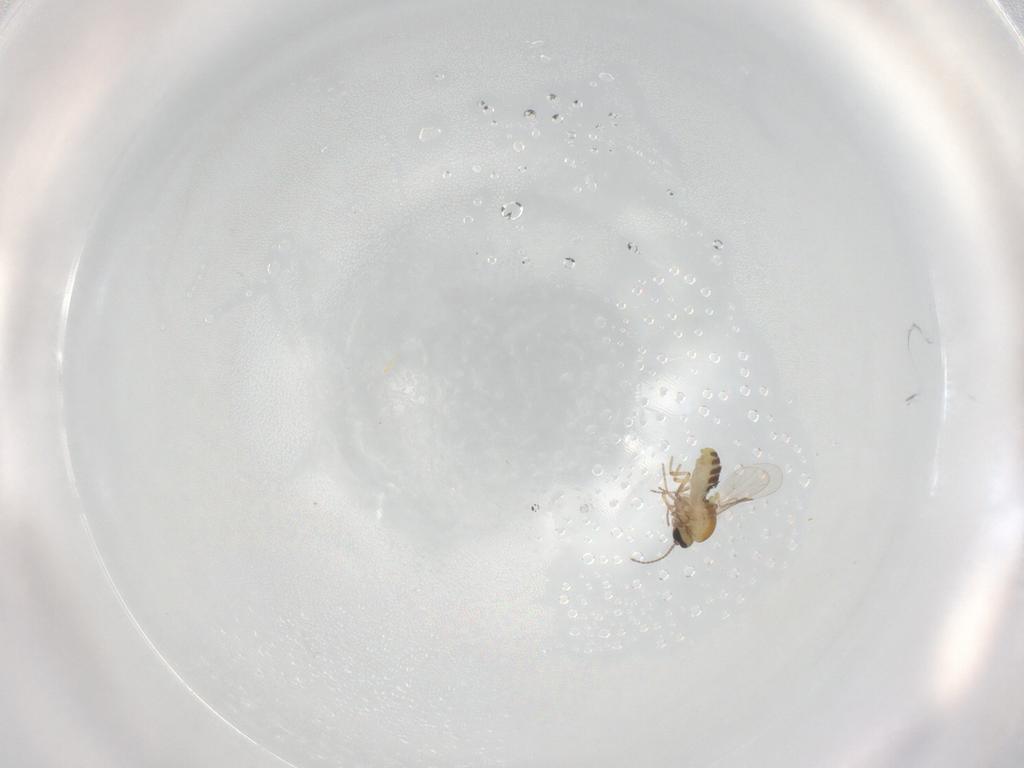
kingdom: Animalia
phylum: Arthropoda
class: Insecta
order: Diptera
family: Ceratopogonidae
